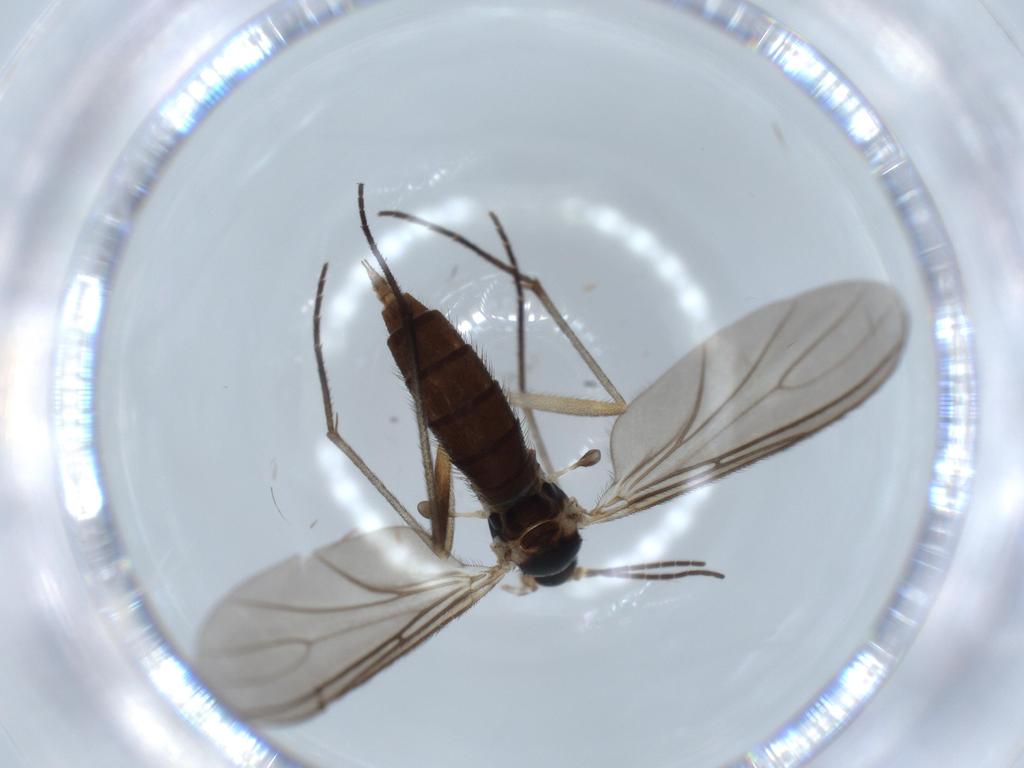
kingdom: Animalia
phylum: Arthropoda
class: Insecta
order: Diptera
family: Sciaridae
